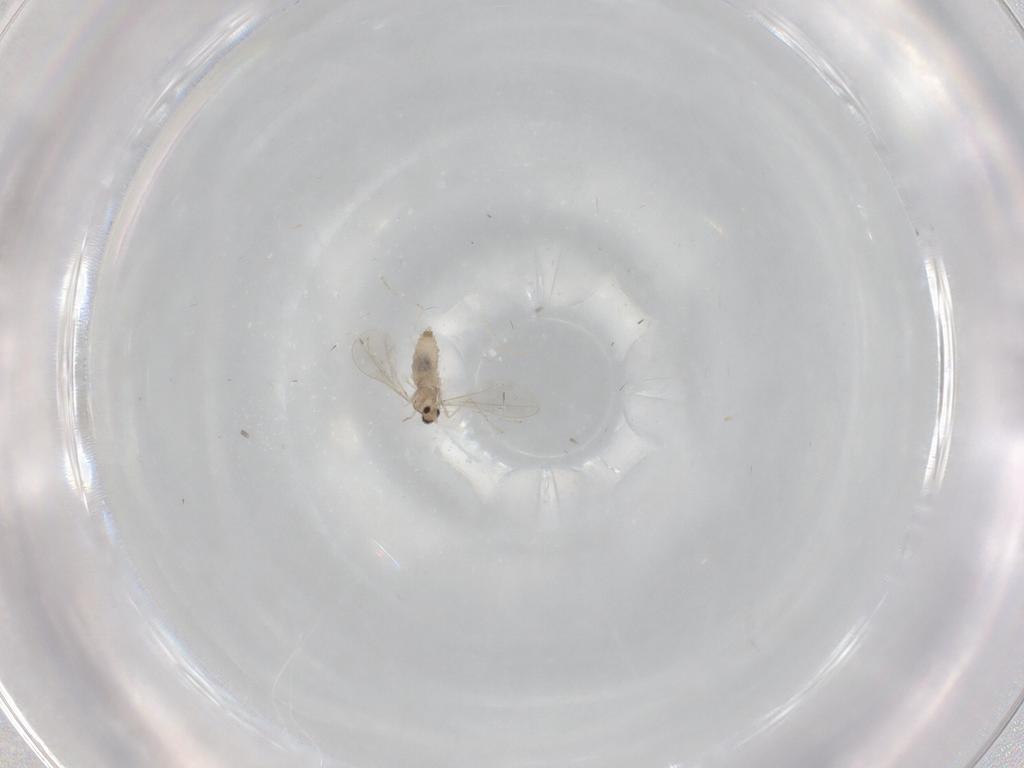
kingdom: Animalia
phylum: Arthropoda
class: Insecta
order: Diptera
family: Cecidomyiidae
